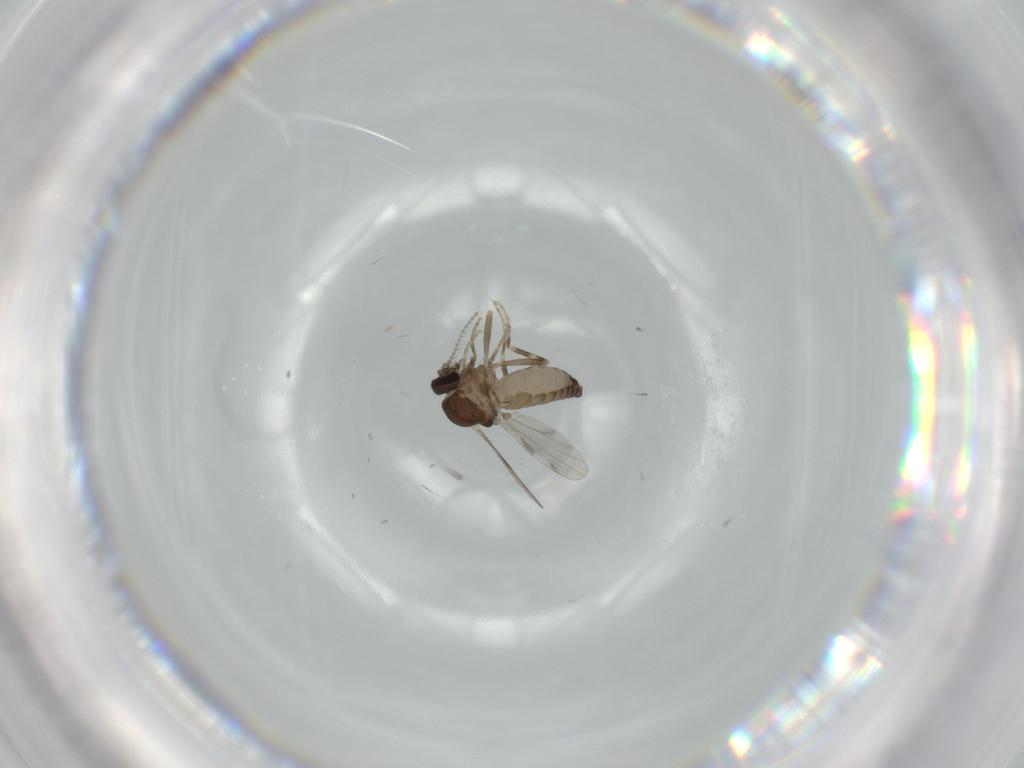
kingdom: Animalia
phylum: Arthropoda
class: Insecta
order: Diptera
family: Ceratopogonidae
